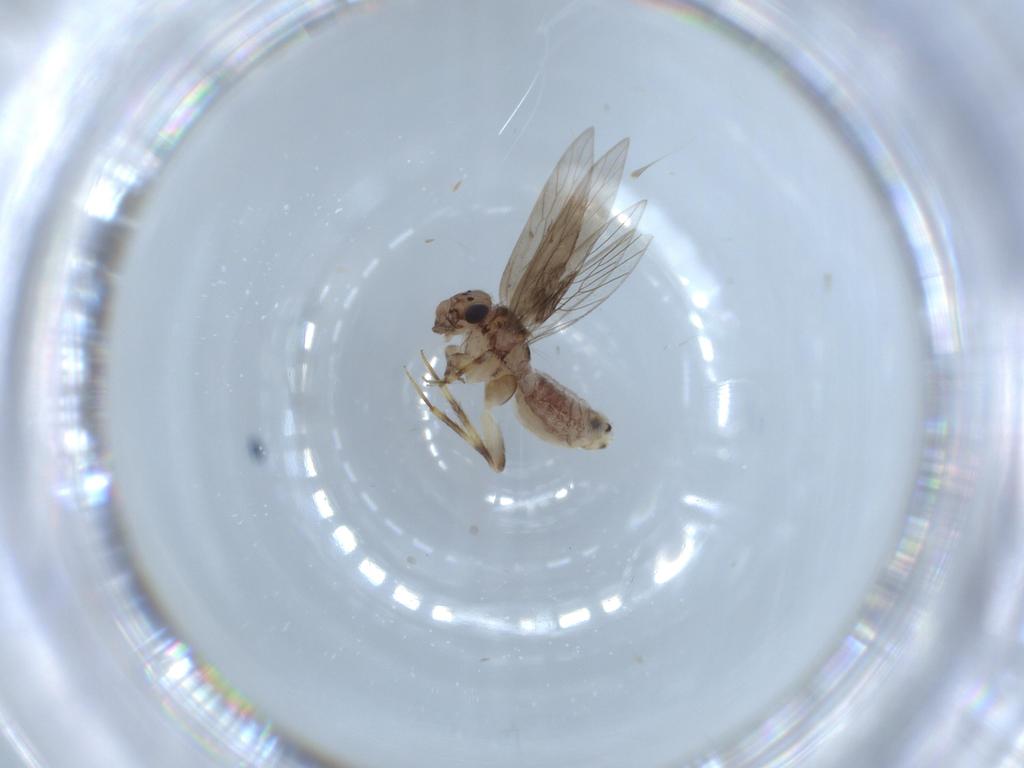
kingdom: Animalia
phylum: Arthropoda
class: Insecta
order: Psocodea
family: Lepidopsocidae
